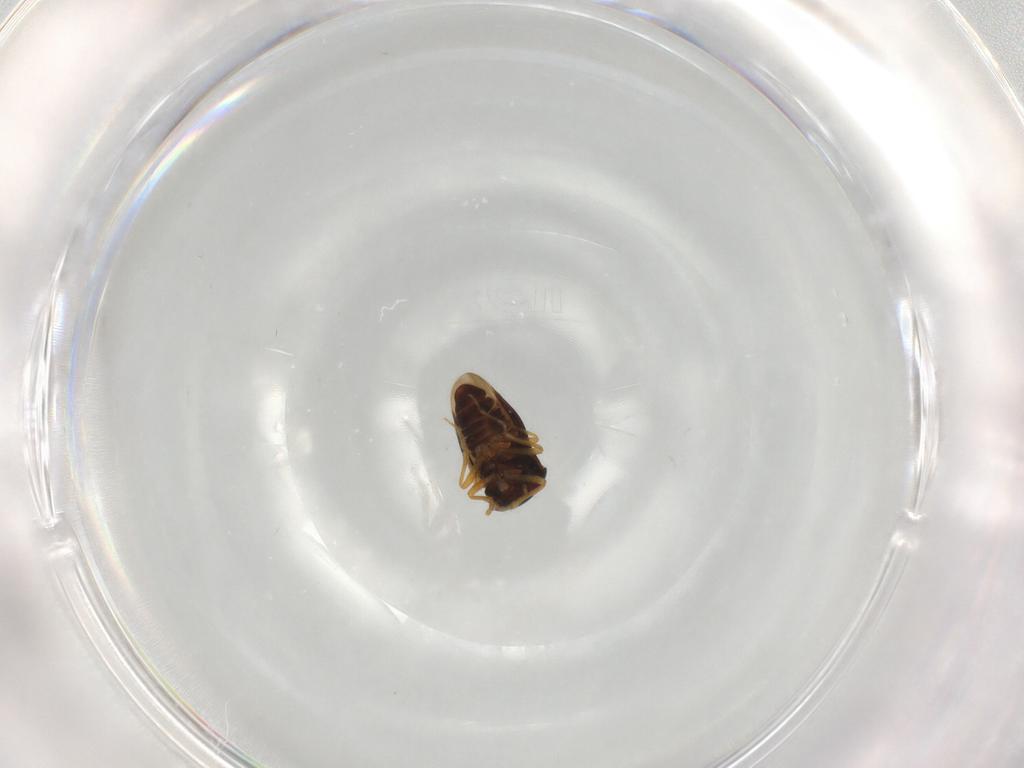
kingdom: Animalia
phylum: Arthropoda
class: Insecta
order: Hemiptera
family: Schizopteridae
